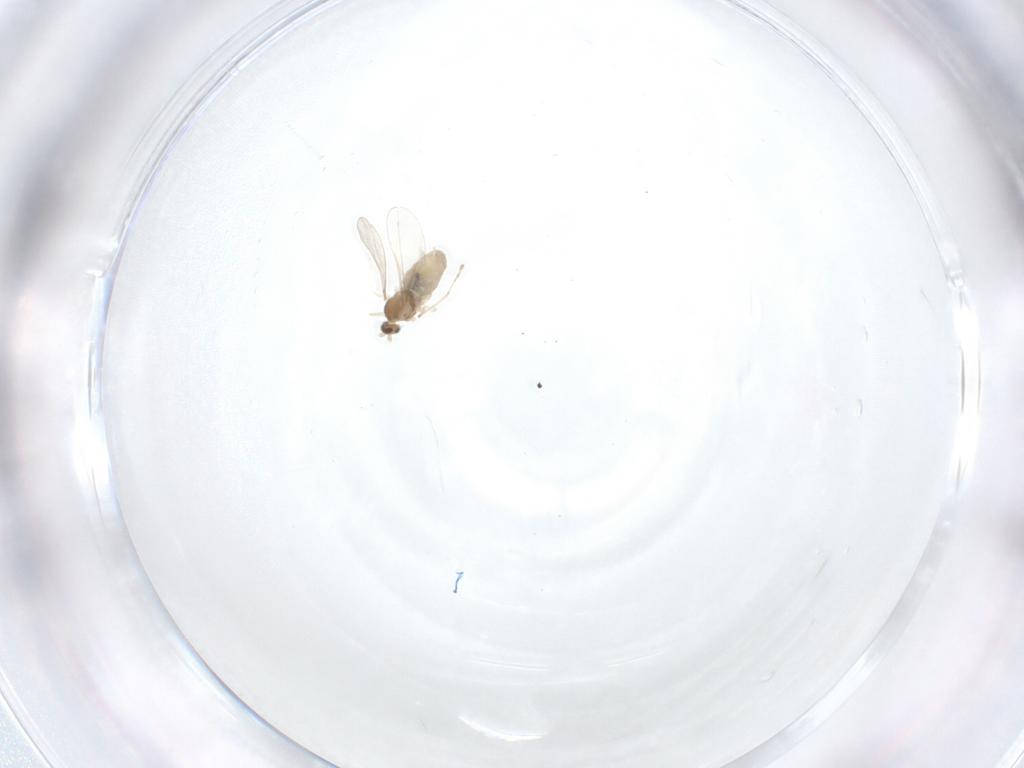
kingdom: Animalia
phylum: Arthropoda
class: Insecta
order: Diptera
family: Cecidomyiidae
